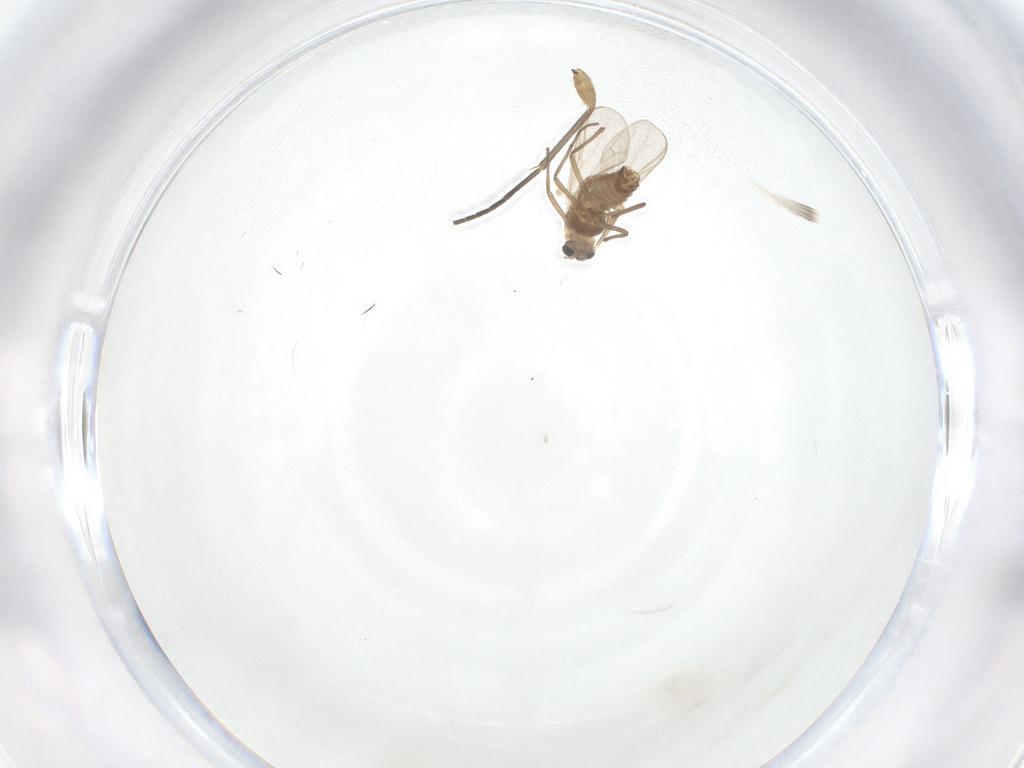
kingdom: Animalia
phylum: Arthropoda
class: Insecta
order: Diptera
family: Sciaridae
